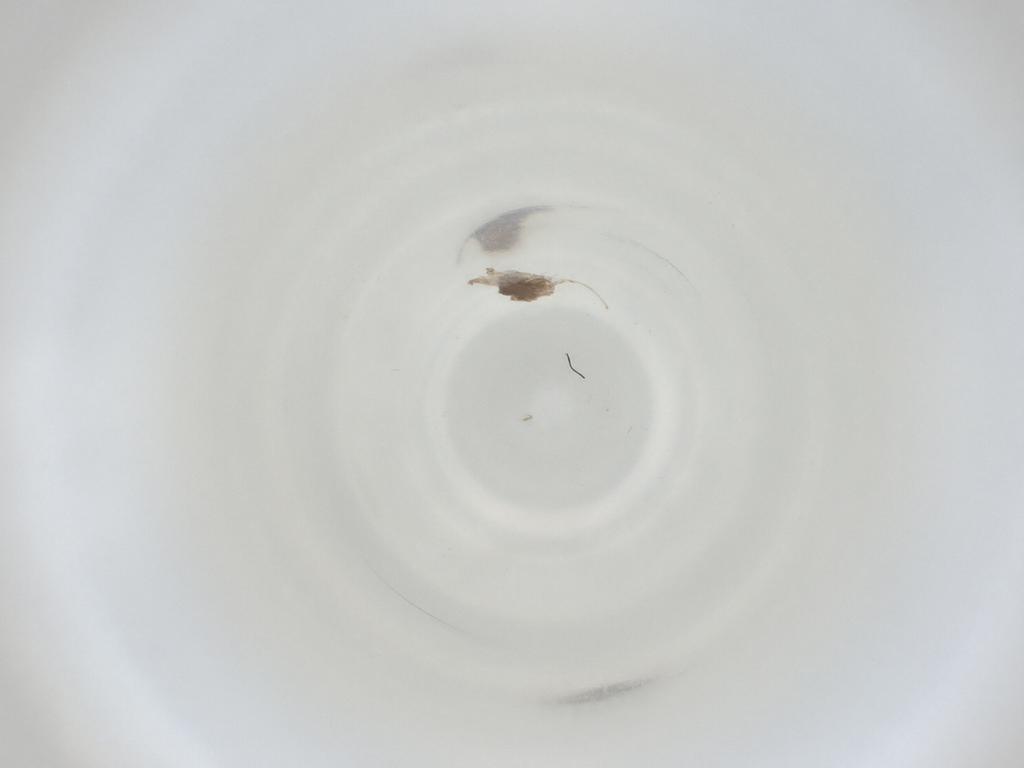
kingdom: Animalia
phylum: Arthropoda
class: Insecta
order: Diptera
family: Cecidomyiidae
